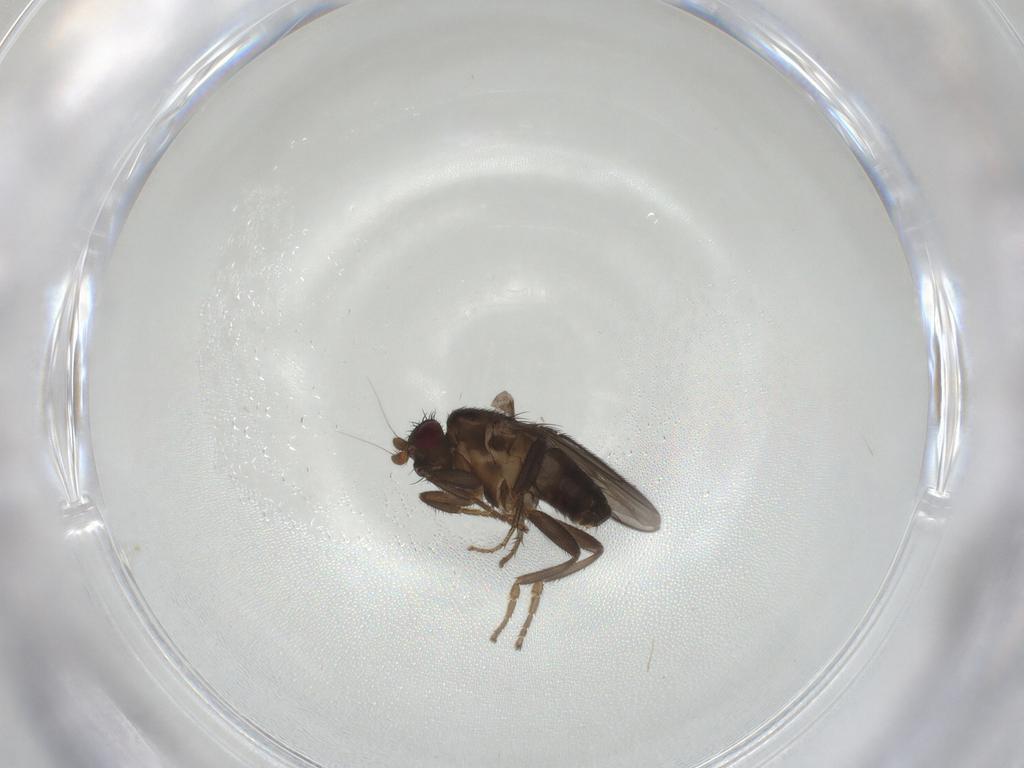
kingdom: Animalia
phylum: Arthropoda
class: Insecta
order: Diptera
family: Sphaeroceridae
